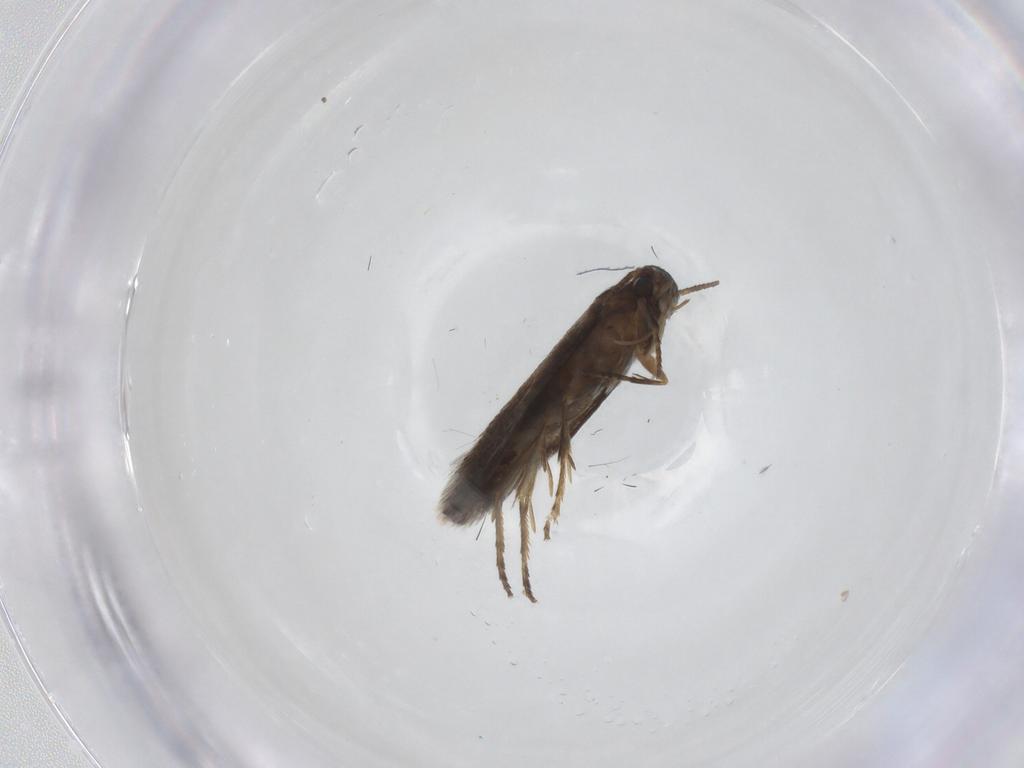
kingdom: Animalia
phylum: Arthropoda
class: Insecta
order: Lepidoptera
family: Heliozelidae
